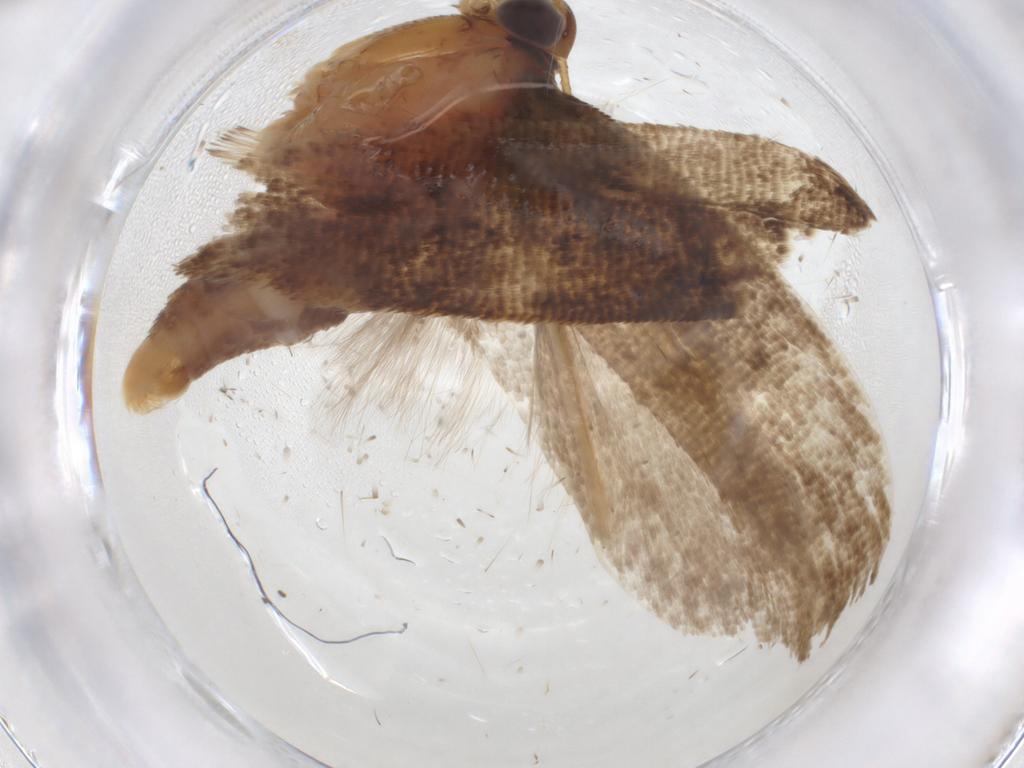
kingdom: Animalia
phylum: Arthropoda
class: Insecta
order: Lepidoptera
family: Gelechiidae
